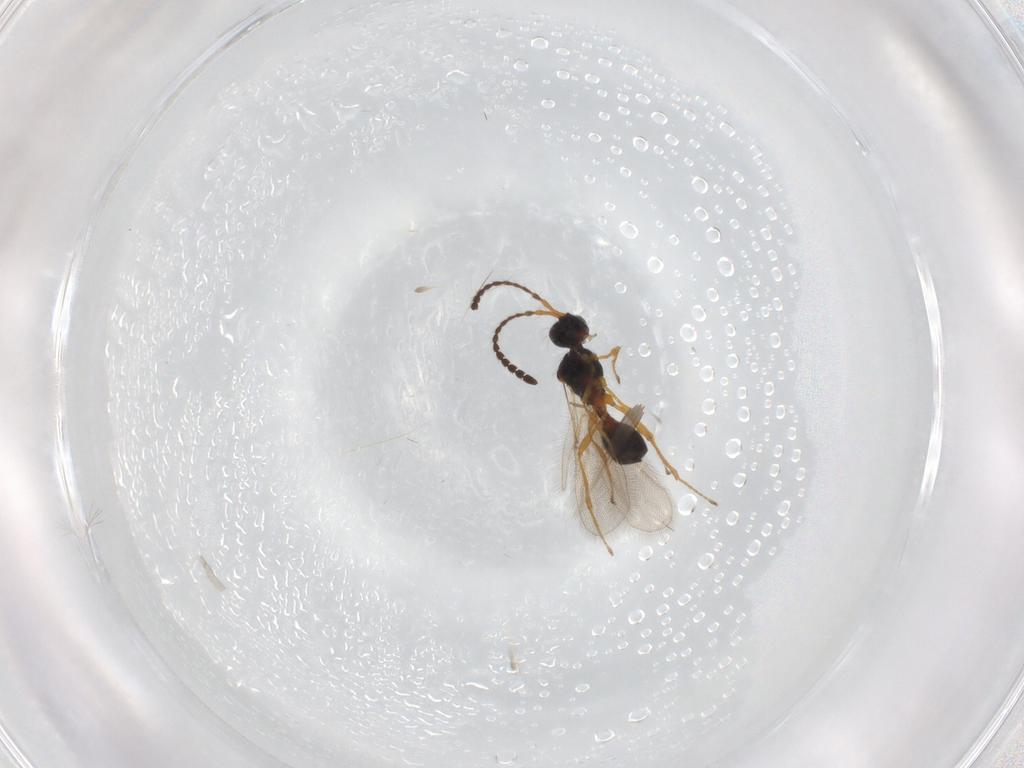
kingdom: Animalia
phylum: Arthropoda
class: Insecta
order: Hymenoptera
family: Diapriidae
